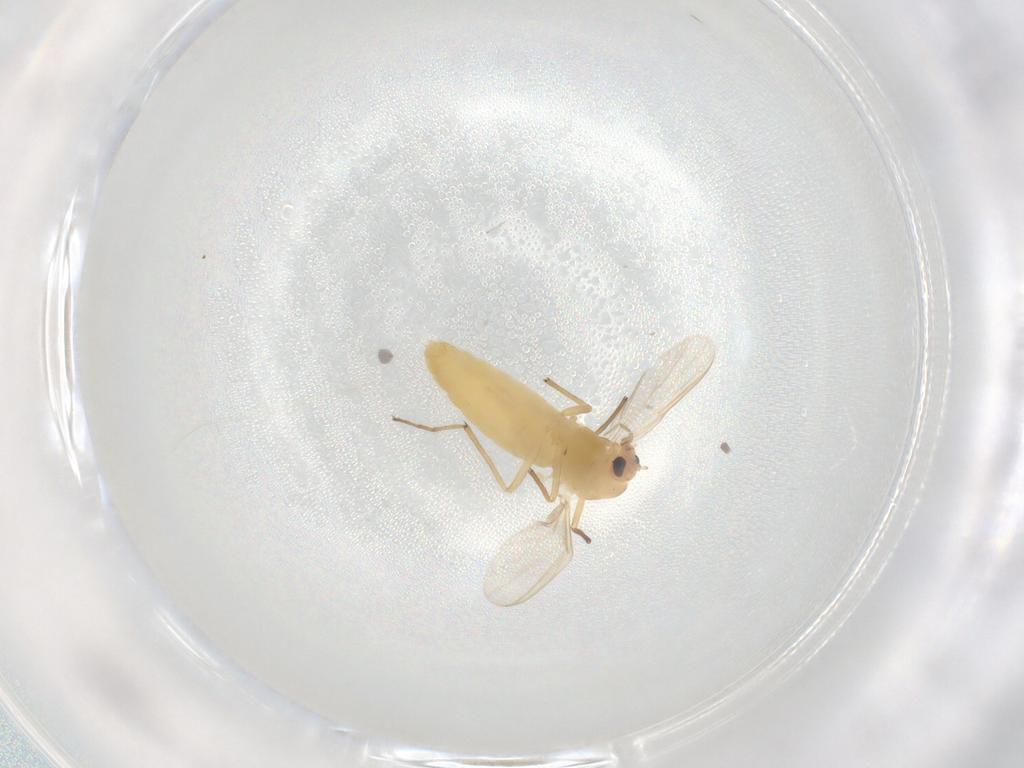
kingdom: Animalia
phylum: Arthropoda
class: Insecta
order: Diptera
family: Chironomidae
